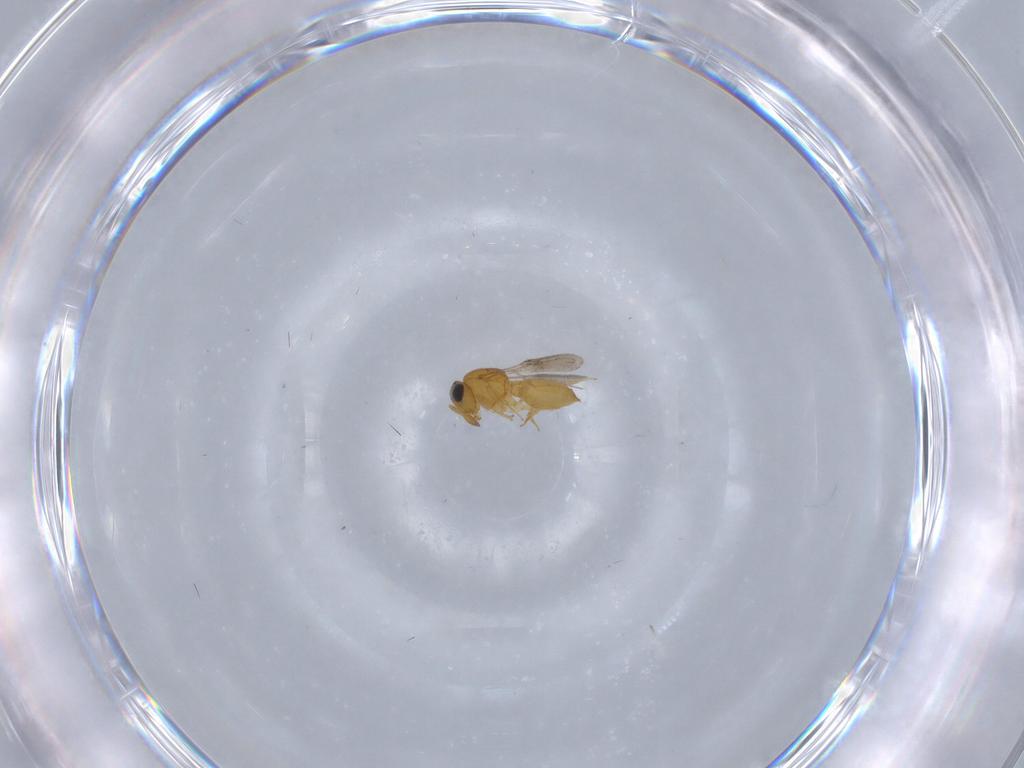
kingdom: Animalia
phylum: Arthropoda
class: Insecta
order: Hymenoptera
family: Scelionidae
